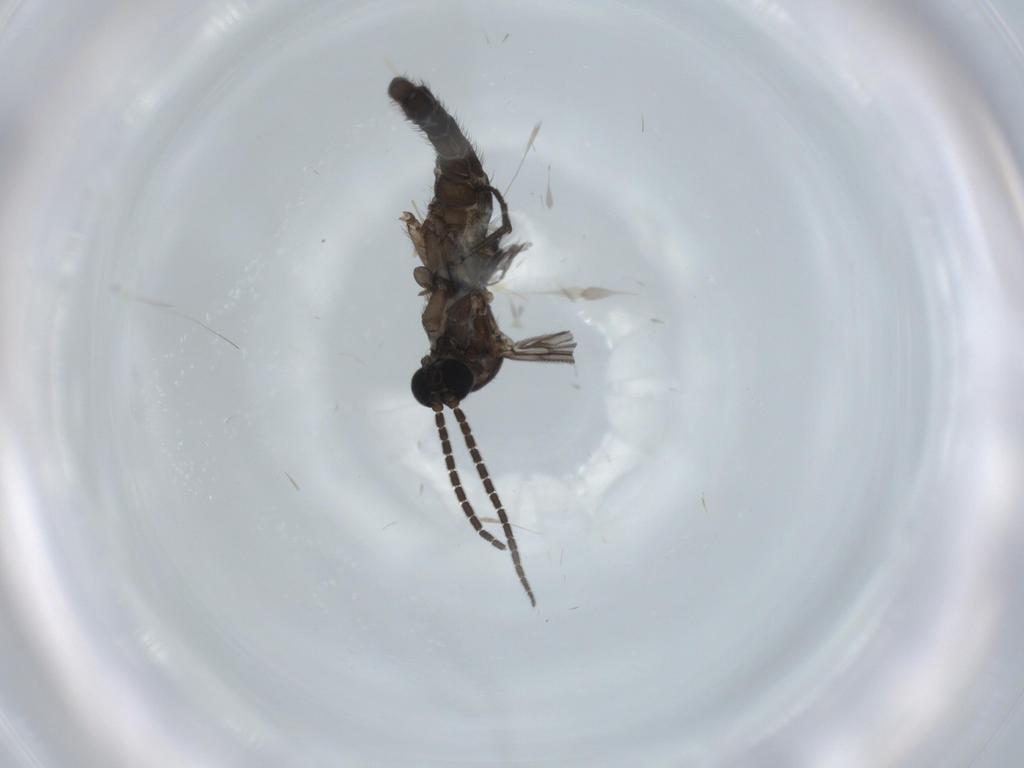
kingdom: Animalia
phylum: Arthropoda
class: Insecta
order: Diptera
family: Sciaridae
